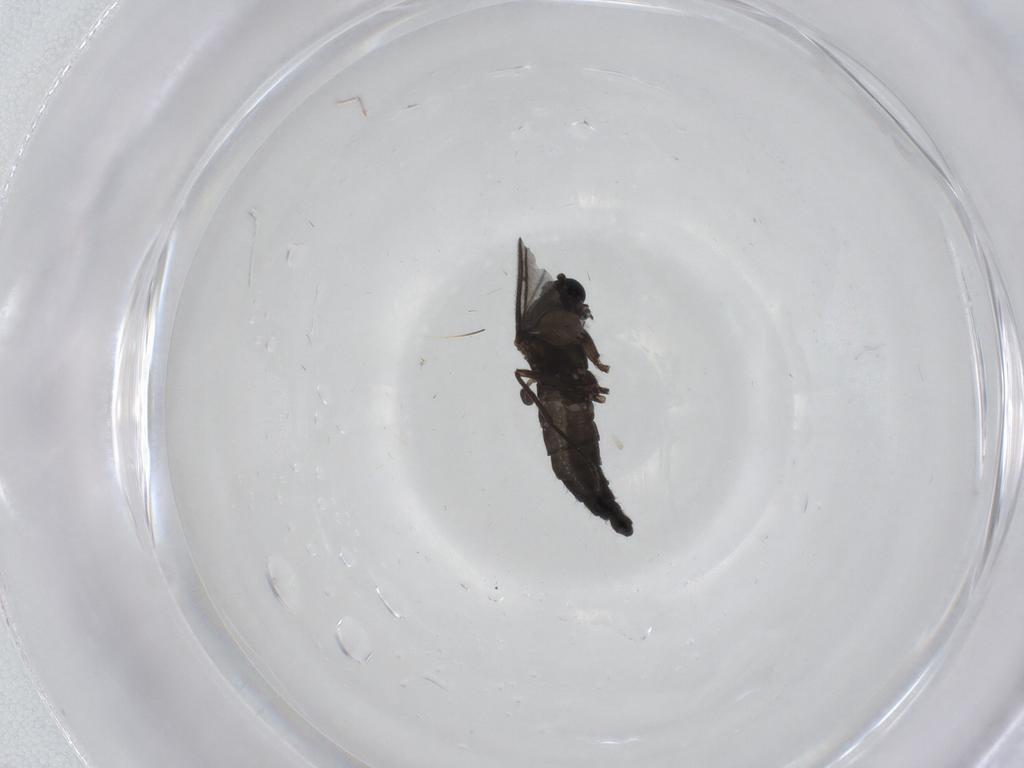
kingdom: Animalia
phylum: Arthropoda
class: Insecta
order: Diptera
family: Sciaridae
